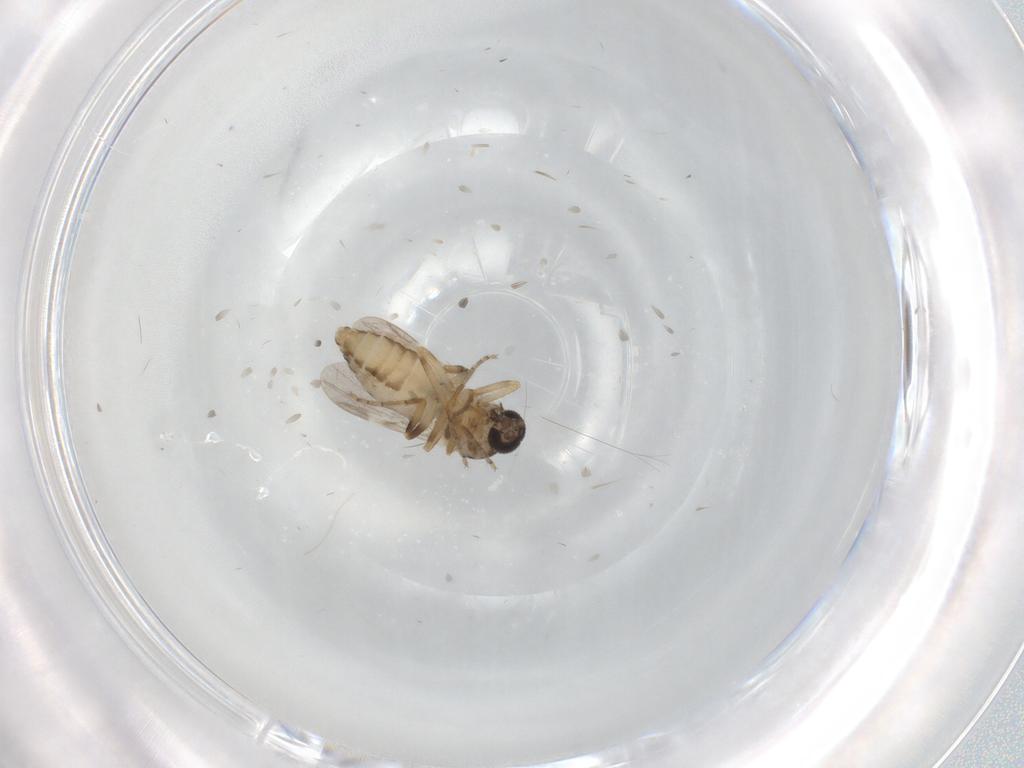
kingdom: Animalia
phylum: Arthropoda
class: Insecta
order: Diptera
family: Ceratopogonidae
